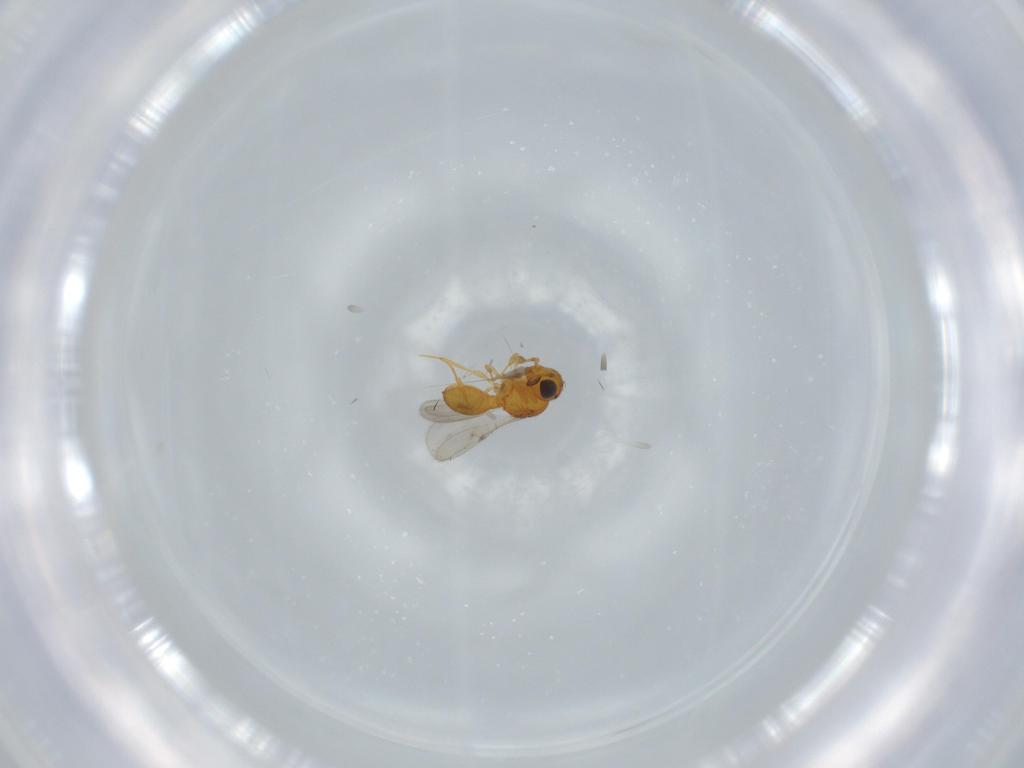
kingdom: Animalia
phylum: Arthropoda
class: Insecta
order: Hymenoptera
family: Scelionidae
